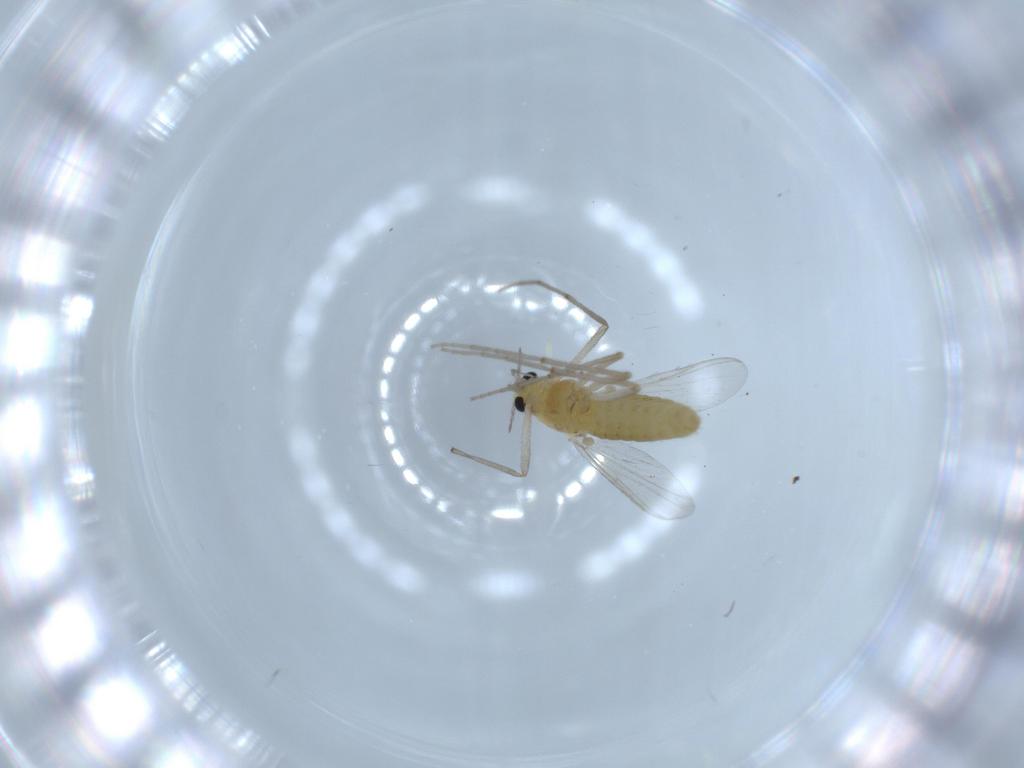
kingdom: Animalia
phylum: Arthropoda
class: Insecta
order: Diptera
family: Chironomidae
